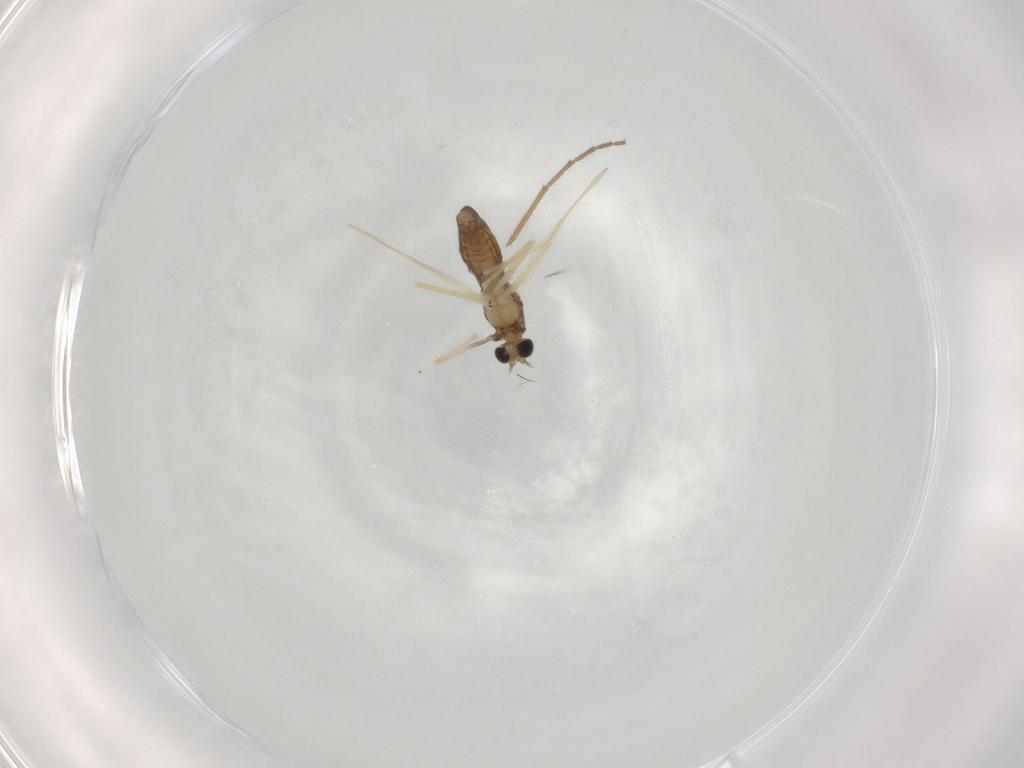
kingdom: Animalia
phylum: Arthropoda
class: Insecta
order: Diptera
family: Chironomidae
